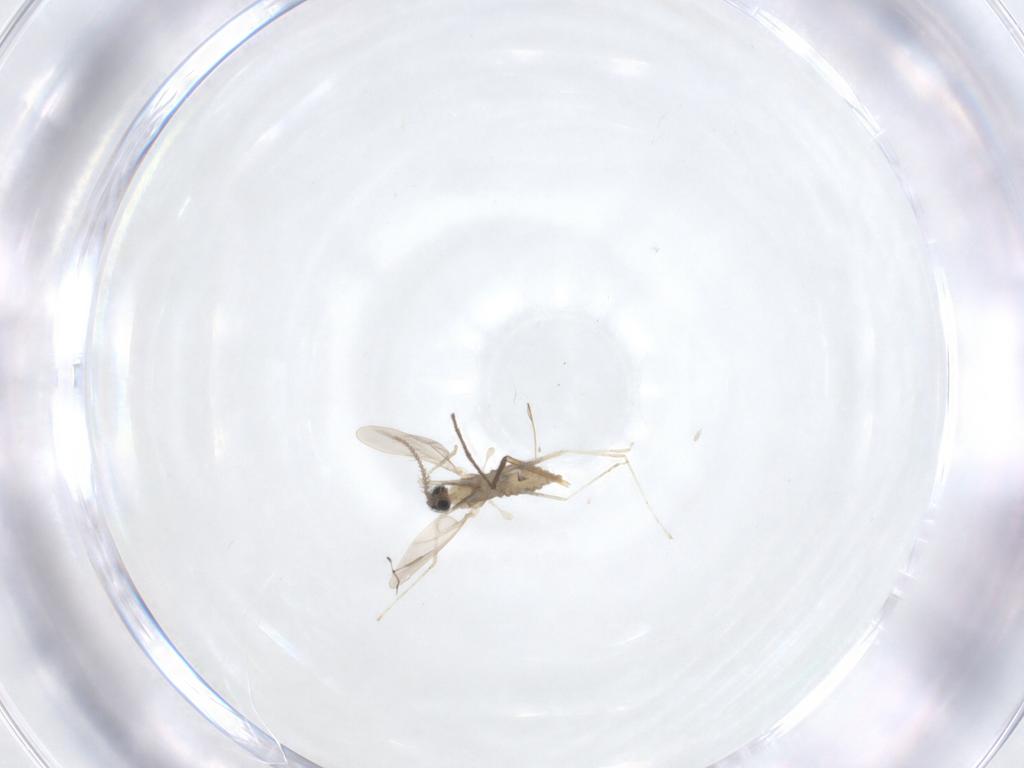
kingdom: Animalia
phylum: Arthropoda
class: Insecta
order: Diptera
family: Cecidomyiidae
